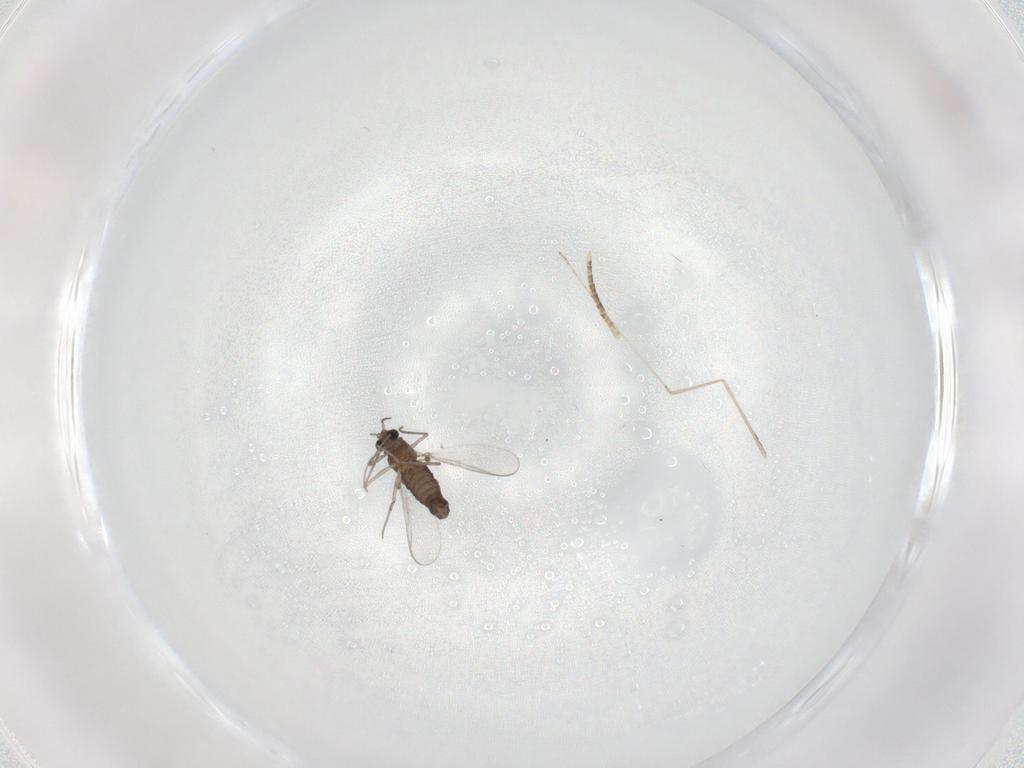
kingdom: Animalia
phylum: Arthropoda
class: Insecta
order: Diptera
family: Chironomidae
